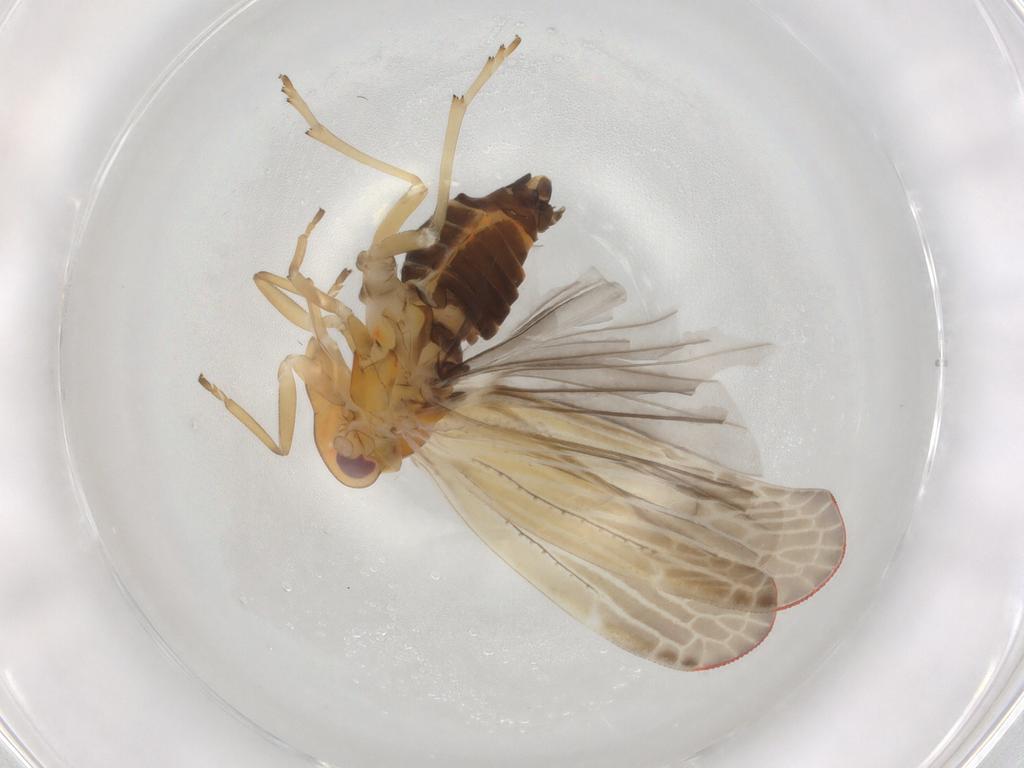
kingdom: Animalia
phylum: Arthropoda
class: Insecta
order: Hemiptera
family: Derbidae
